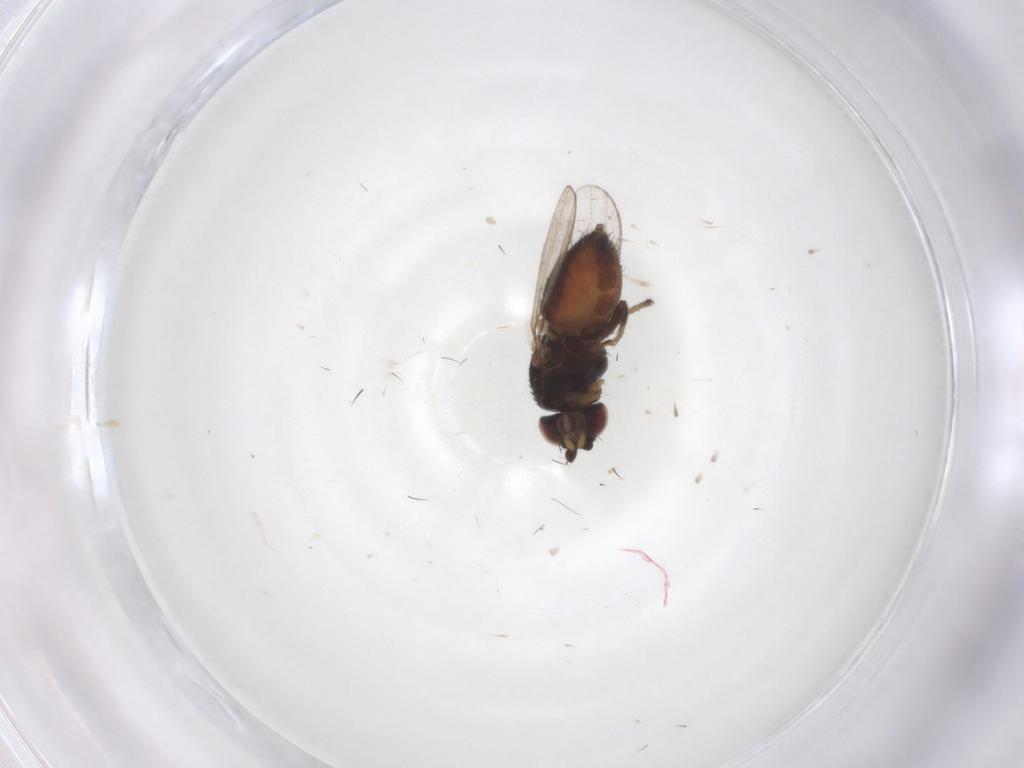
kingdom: Animalia
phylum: Arthropoda
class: Insecta
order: Diptera
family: Milichiidae
